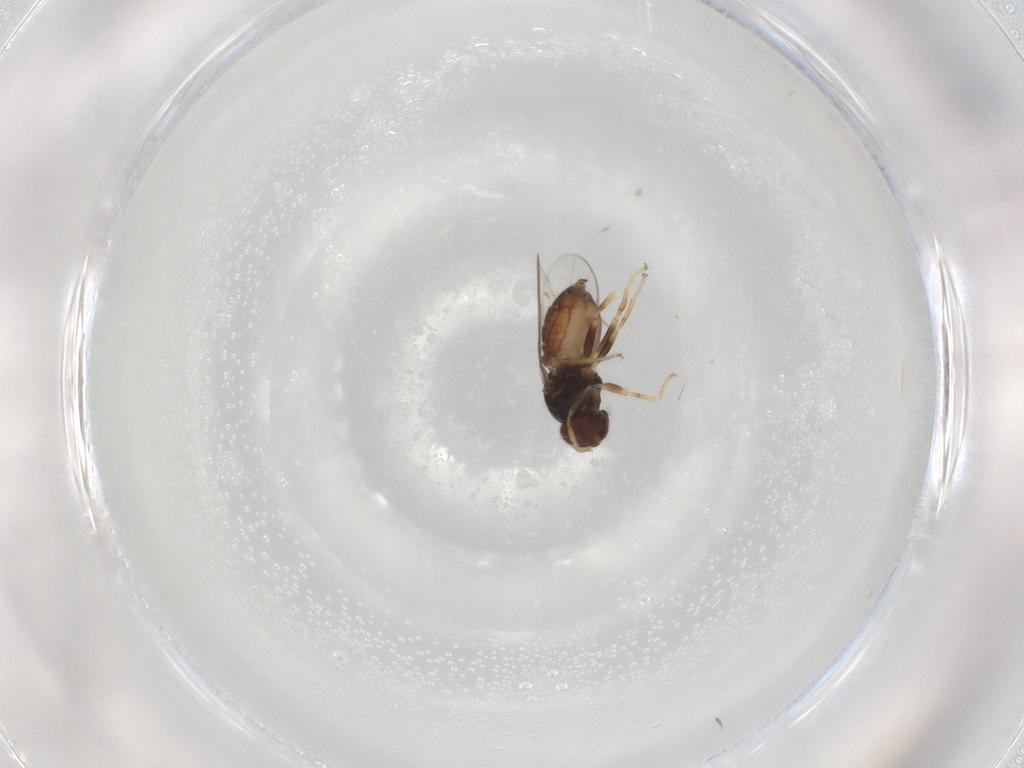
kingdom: Animalia
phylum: Arthropoda
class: Insecta
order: Diptera
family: Chloropidae
